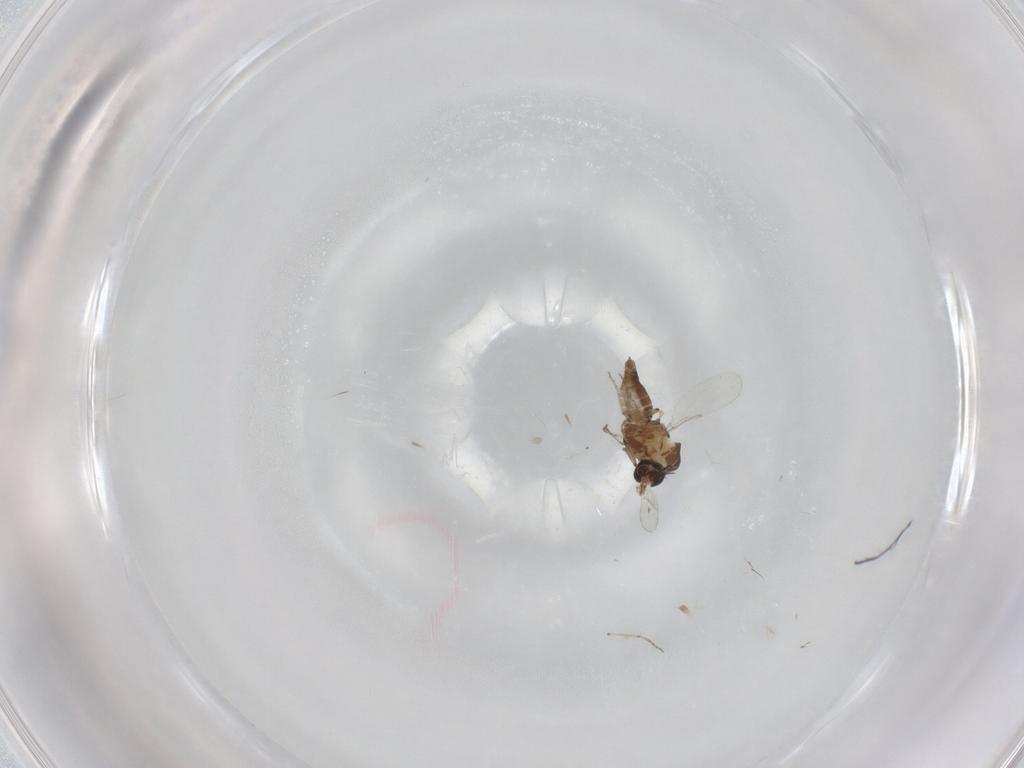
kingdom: Animalia
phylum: Arthropoda
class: Insecta
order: Diptera
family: Ceratopogonidae
